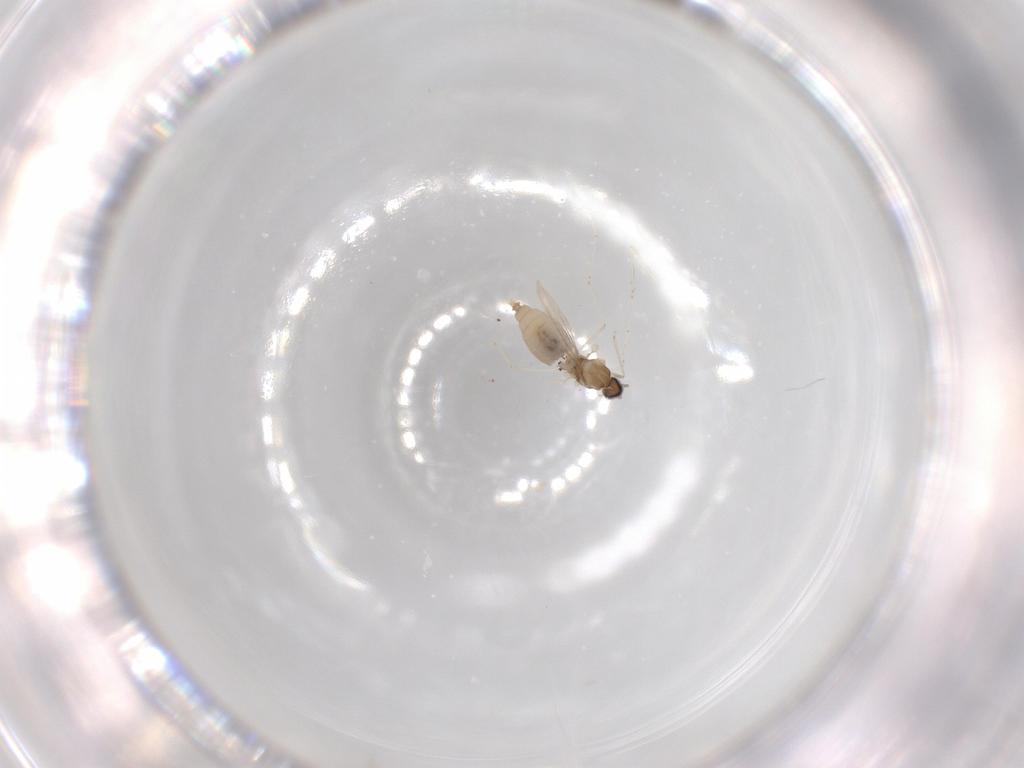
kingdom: Animalia
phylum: Arthropoda
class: Insecta
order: Diptera
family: Cecidomyiidae
